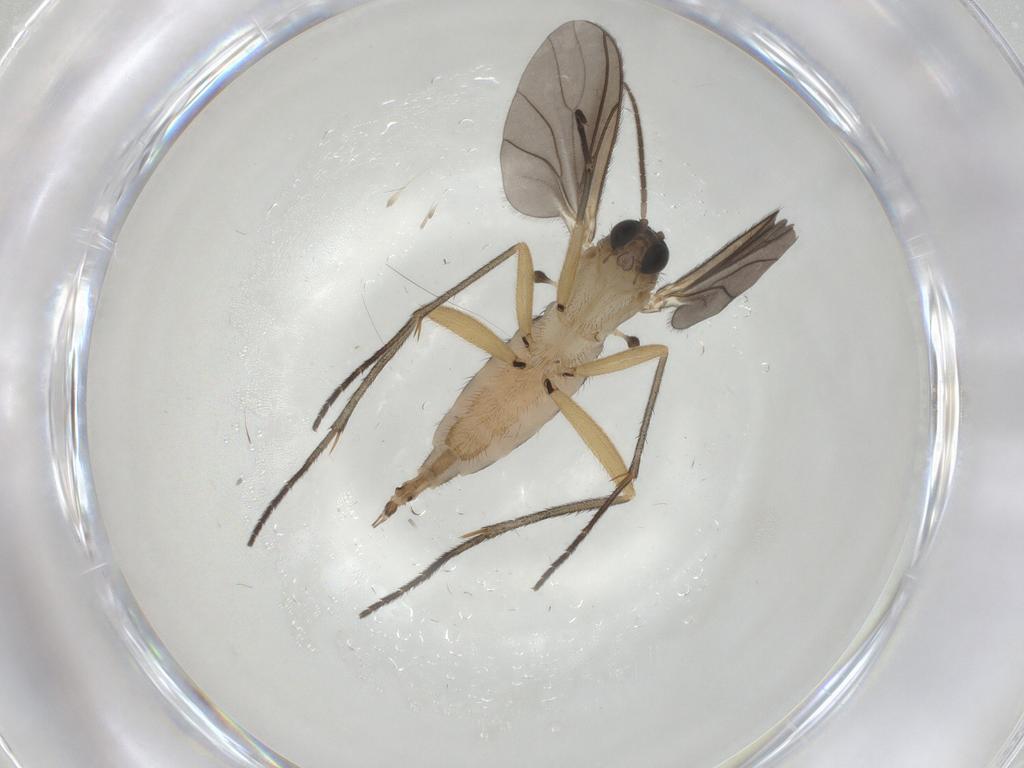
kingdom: Animalia
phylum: Arthropoda
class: Insecta
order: Diptera
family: Sciaridae
